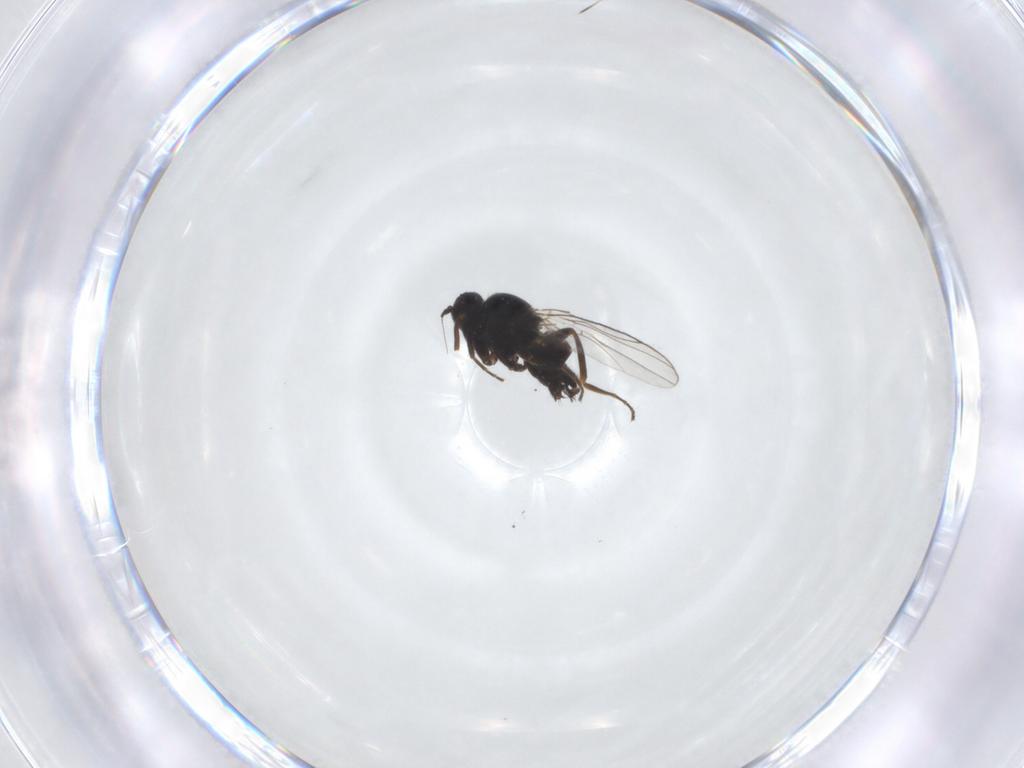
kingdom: Animalia
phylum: Arthropoda
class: Insecta
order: Diptera
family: Hybotidae
